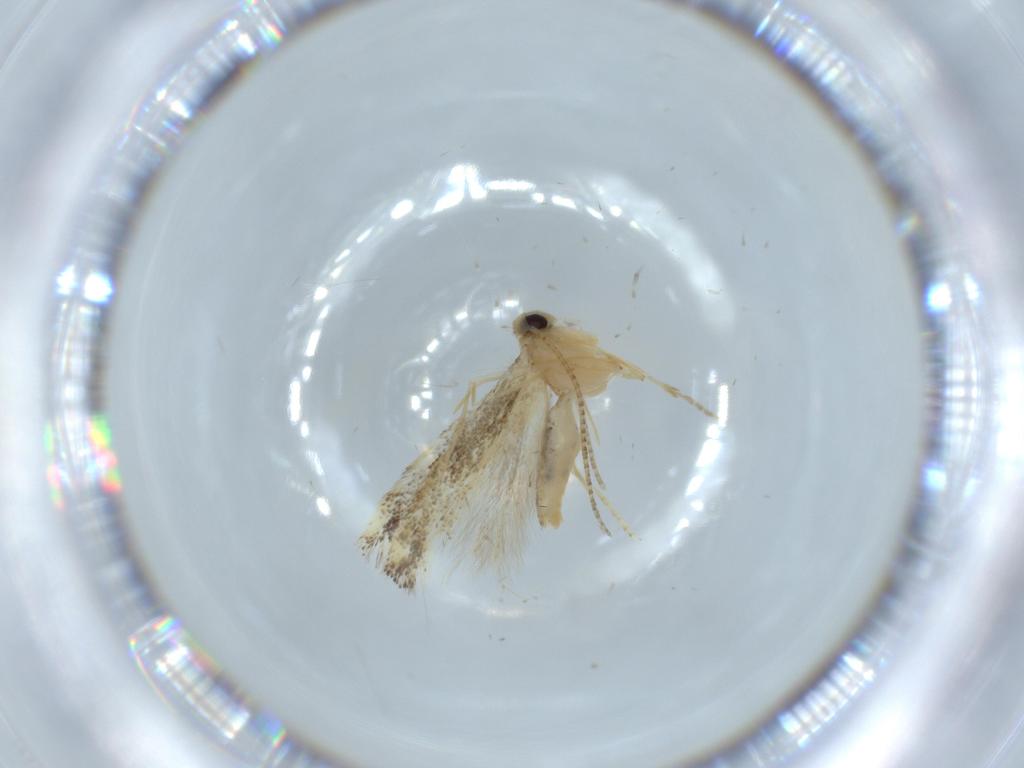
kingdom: Animalia
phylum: Arthropoda
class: Insecta
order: Lepidoptera
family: Bucculatricidae
